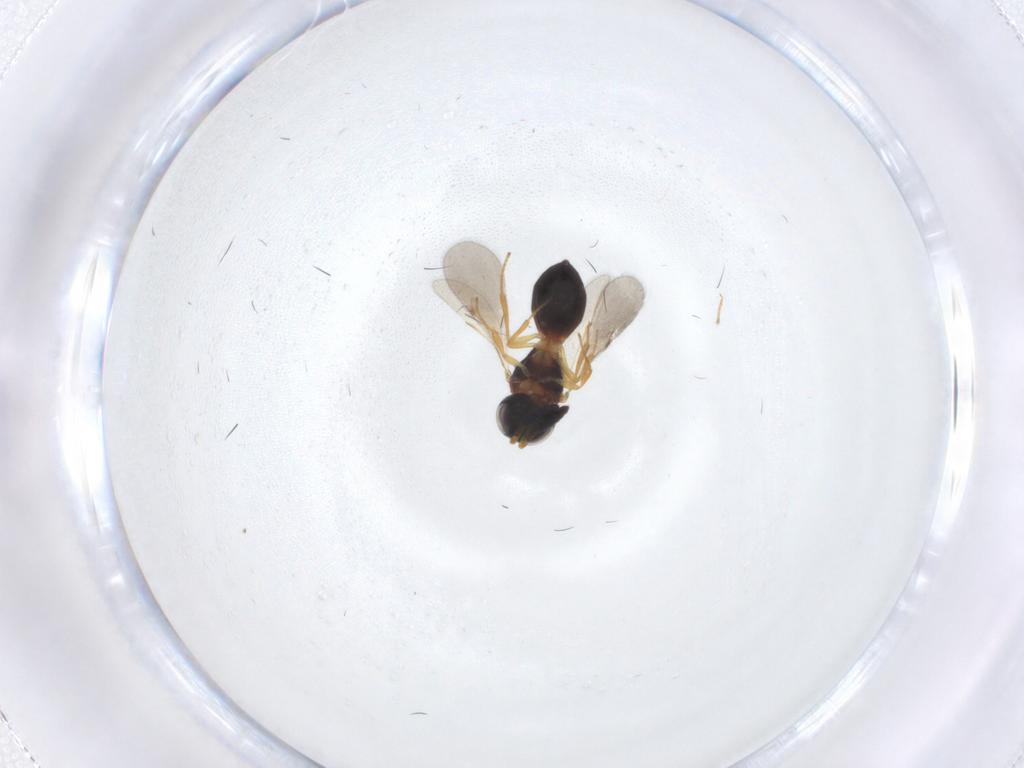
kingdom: Animalia
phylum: Arthropoda
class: Insecta
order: Hymenoptera
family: Scelionidae
